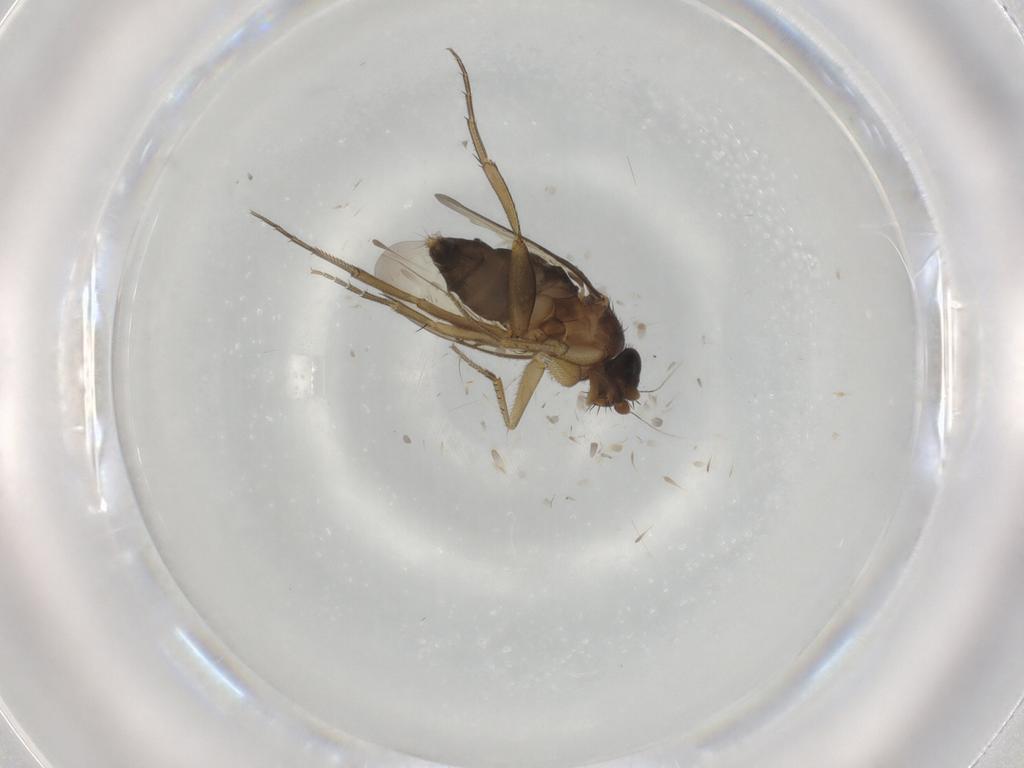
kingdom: Animalia
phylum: Arthropoda
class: Insecta
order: Diptera
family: Phoridae
